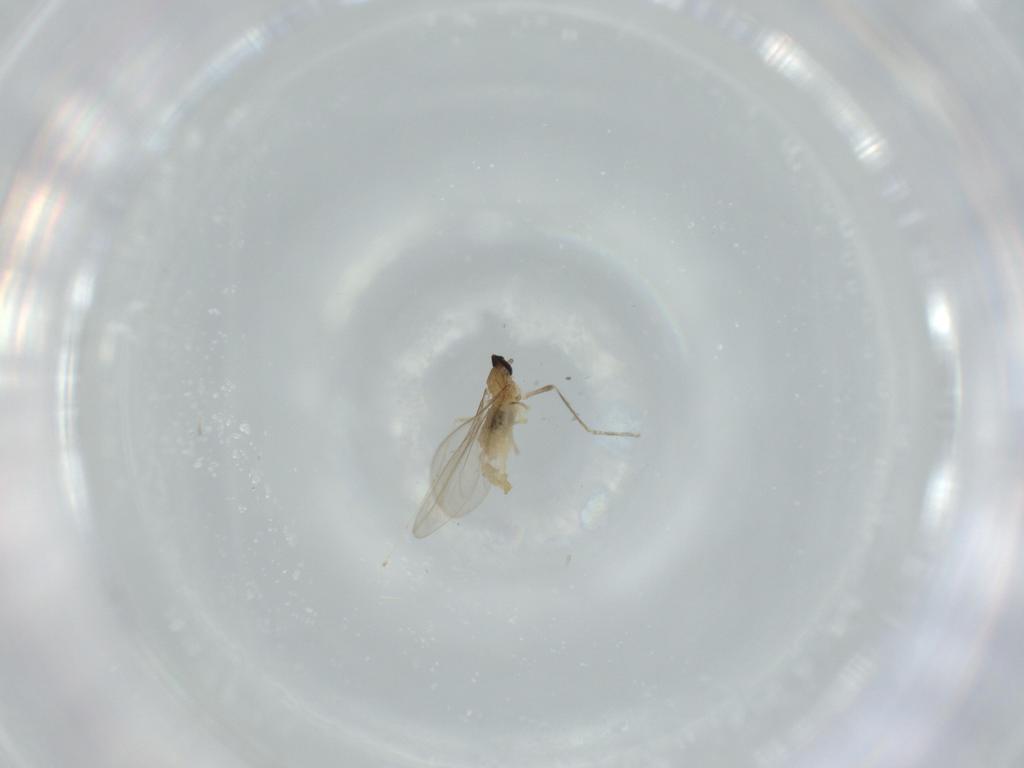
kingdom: Animalia
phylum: Arthropoda
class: Insecta
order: Diptera
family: Cecidomyiidae
